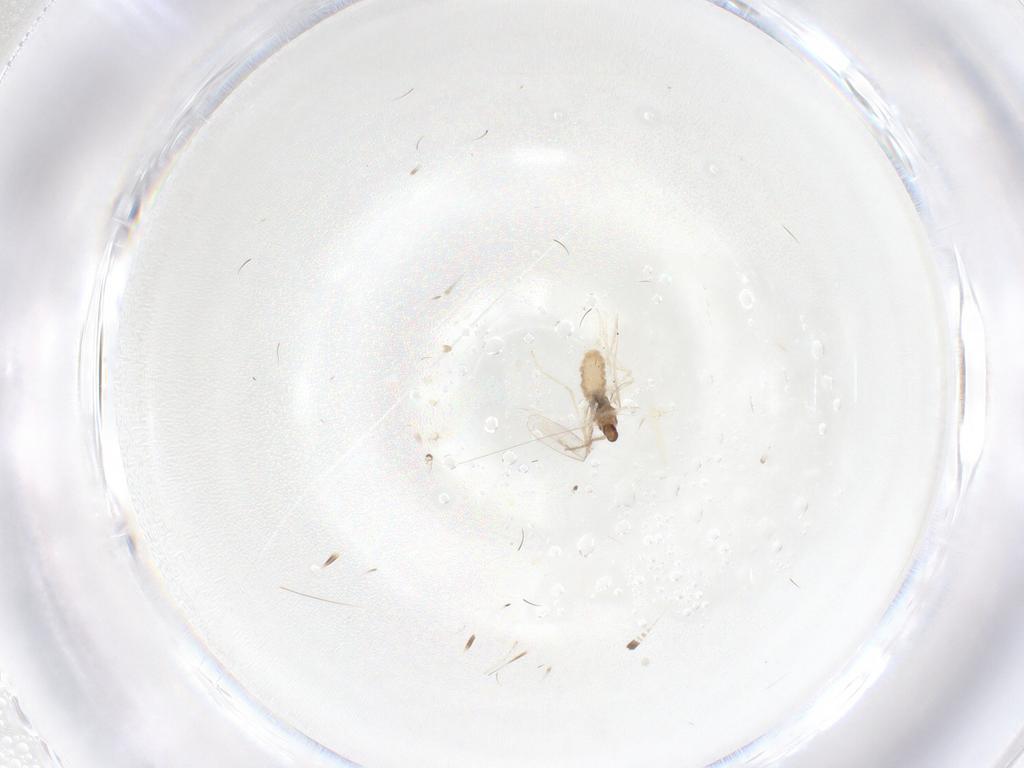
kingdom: Animalia
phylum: Arthropoda
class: Insecta
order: Diptera
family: Cecidomyiidae
